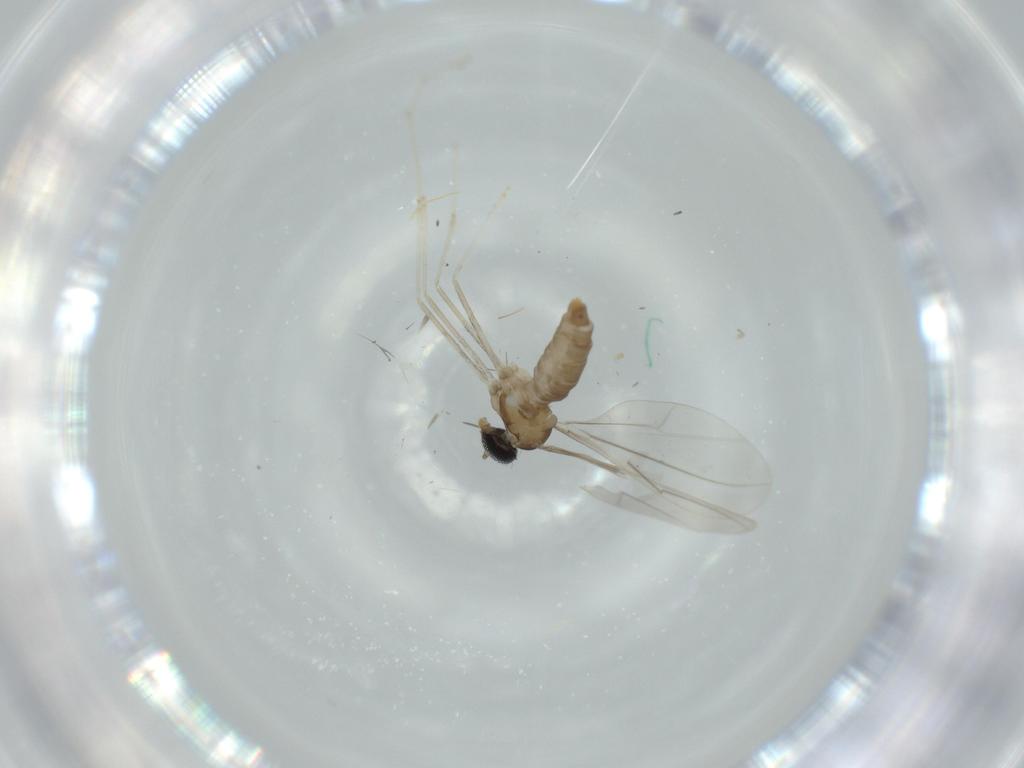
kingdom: Animalia
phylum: Arthropoda
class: Insecta
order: Diptera
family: Cecidomyiidae
